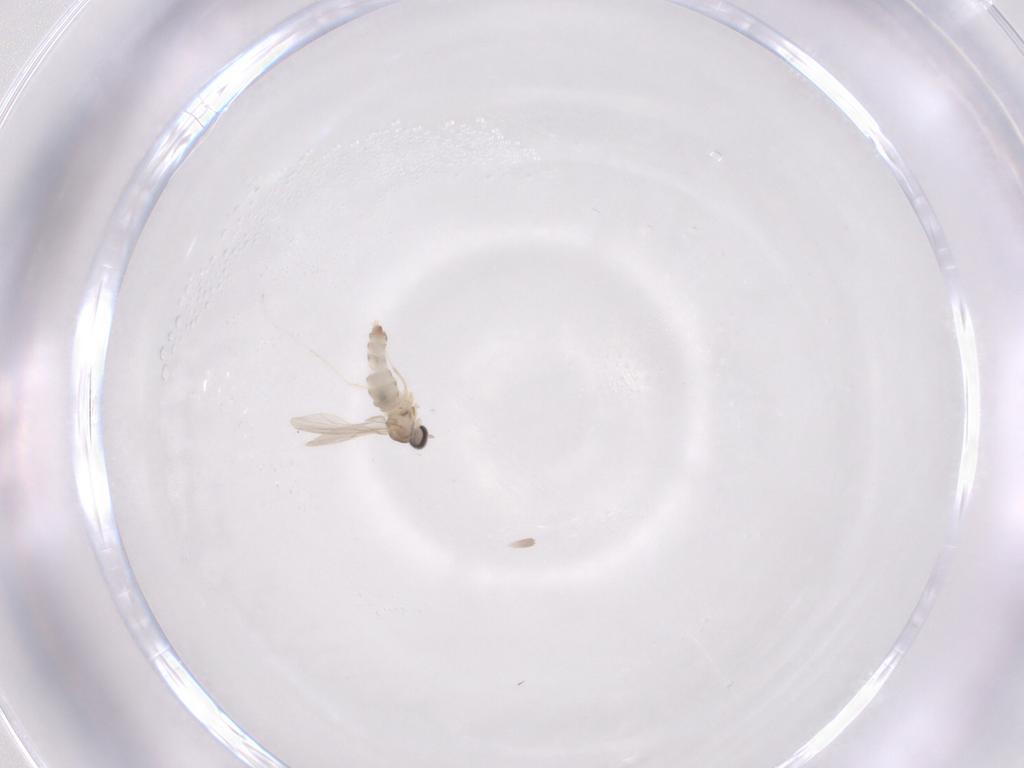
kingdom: Animalia
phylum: Arthropoda
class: Insecta
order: Diptera
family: Cecidomyiidae
